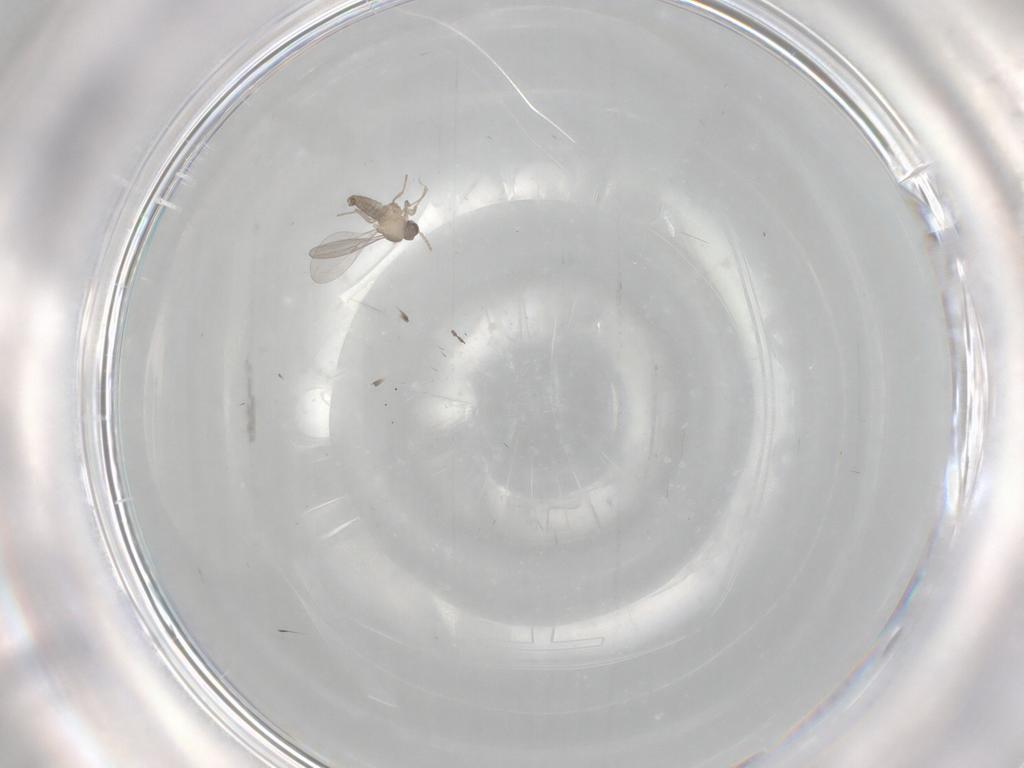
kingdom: Animalia
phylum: Arthropoda
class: Insecta
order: Diptera
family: Cecidomyiidae
